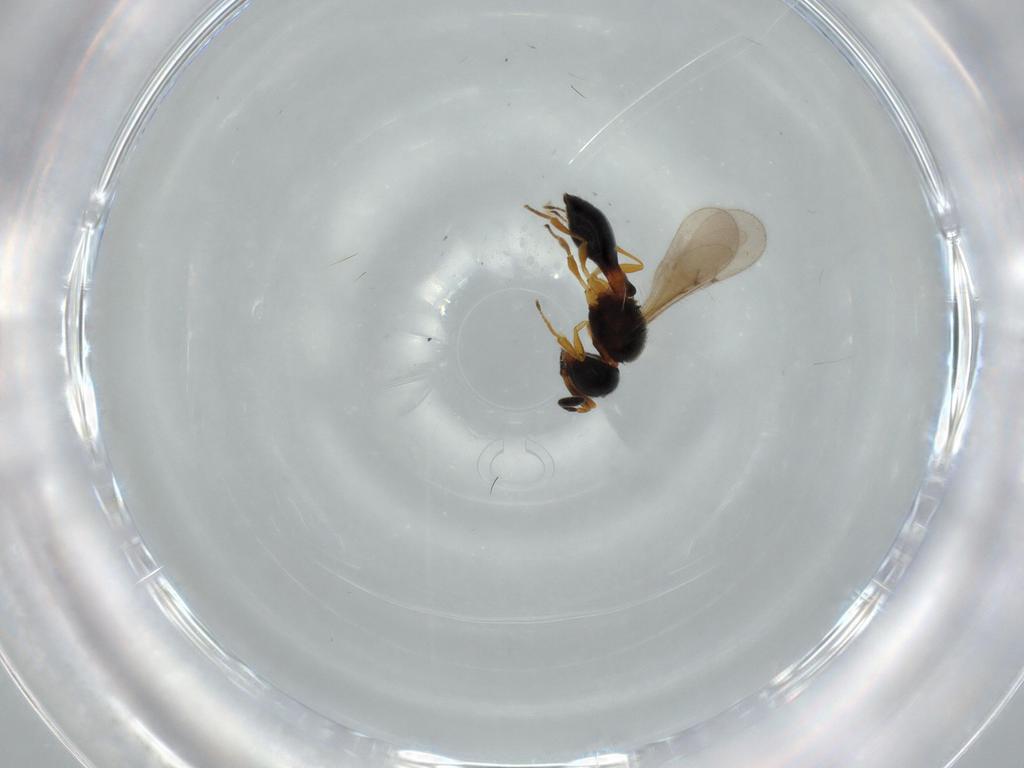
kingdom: Animalia
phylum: Arthropoda
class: Insecta
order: Hymenoptera
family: Scelionidae
